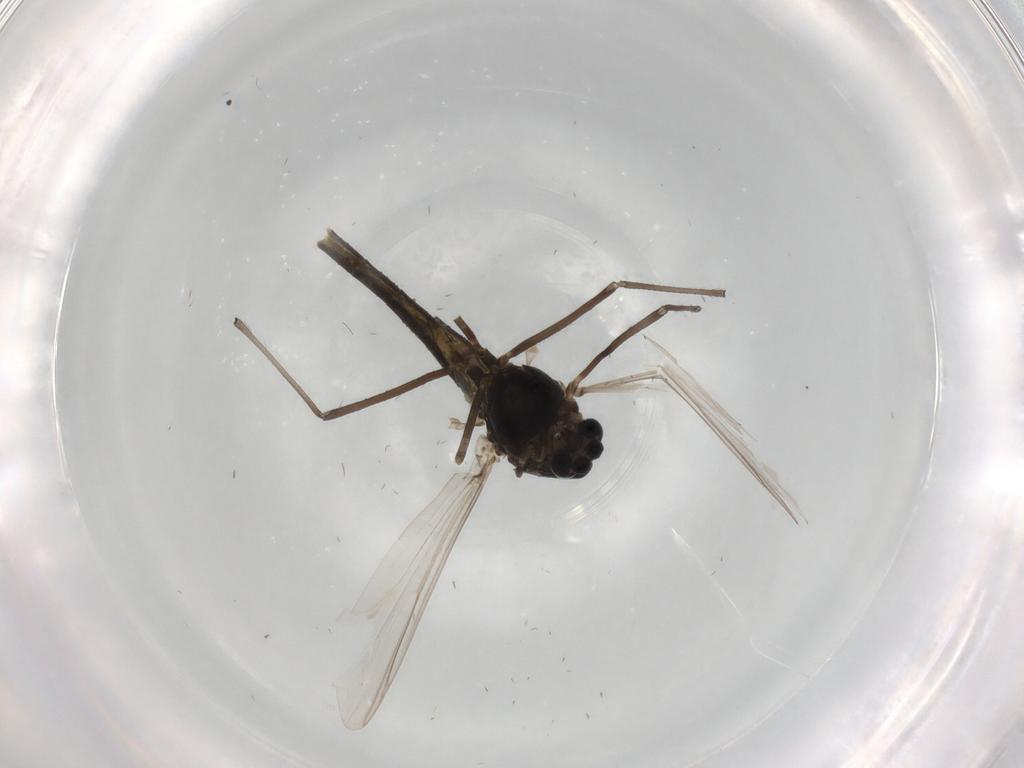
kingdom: Animalia
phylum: Arthropoda
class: Insecta
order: Diptera
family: Chironomidae
